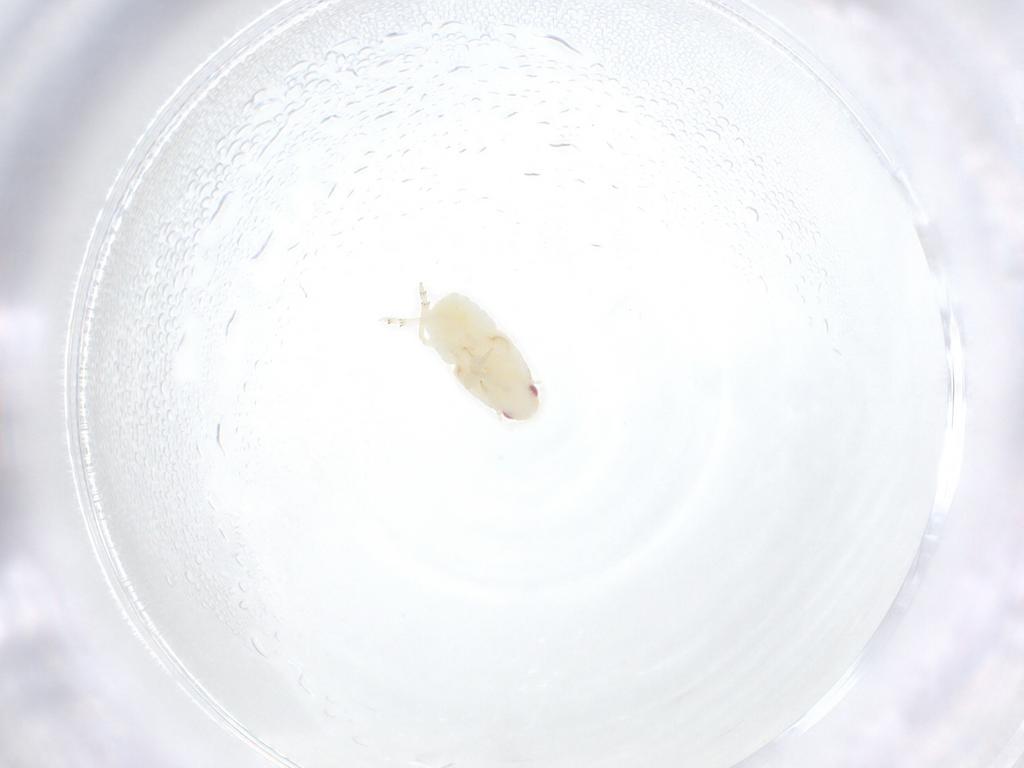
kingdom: Animalia
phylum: Arthropoda
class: Insecta
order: Hemiptera
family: Flatidae
